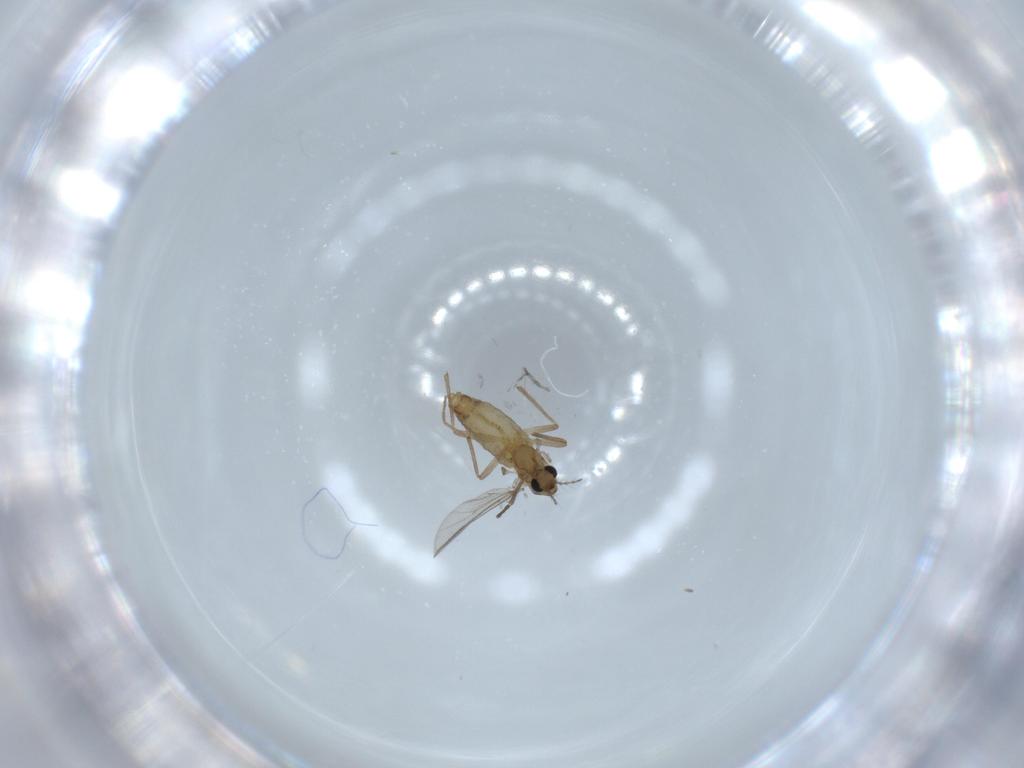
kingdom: Animalia
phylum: Arthropoda
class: Insecta
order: Diptera
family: Chironomidae
